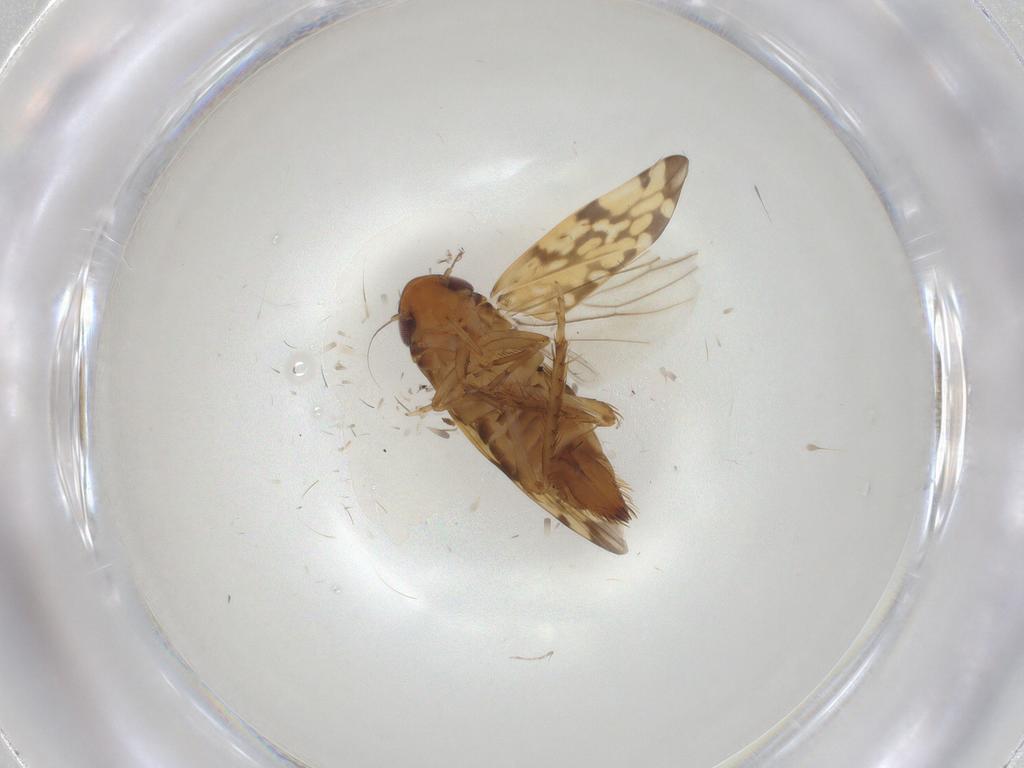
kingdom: Animalia
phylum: Arthropoda
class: Insecta
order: Hemiptera
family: Cicadellidae
